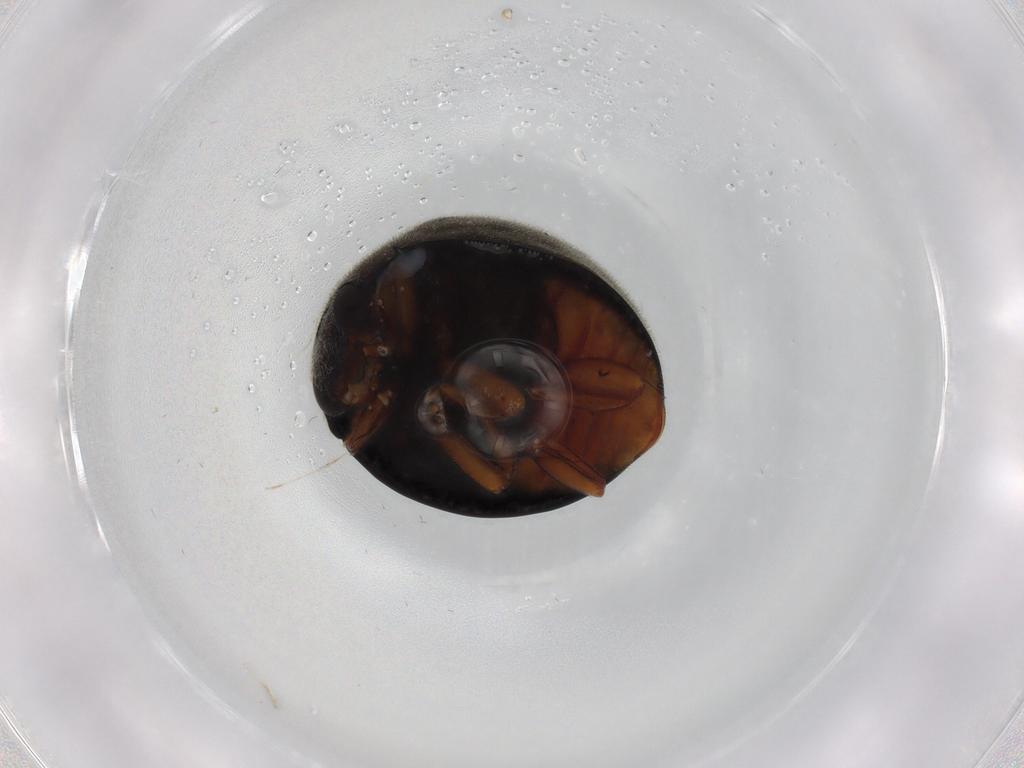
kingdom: Animalia
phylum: Arthropoda
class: Insecta
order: Coleoptera
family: Coccinellidae
